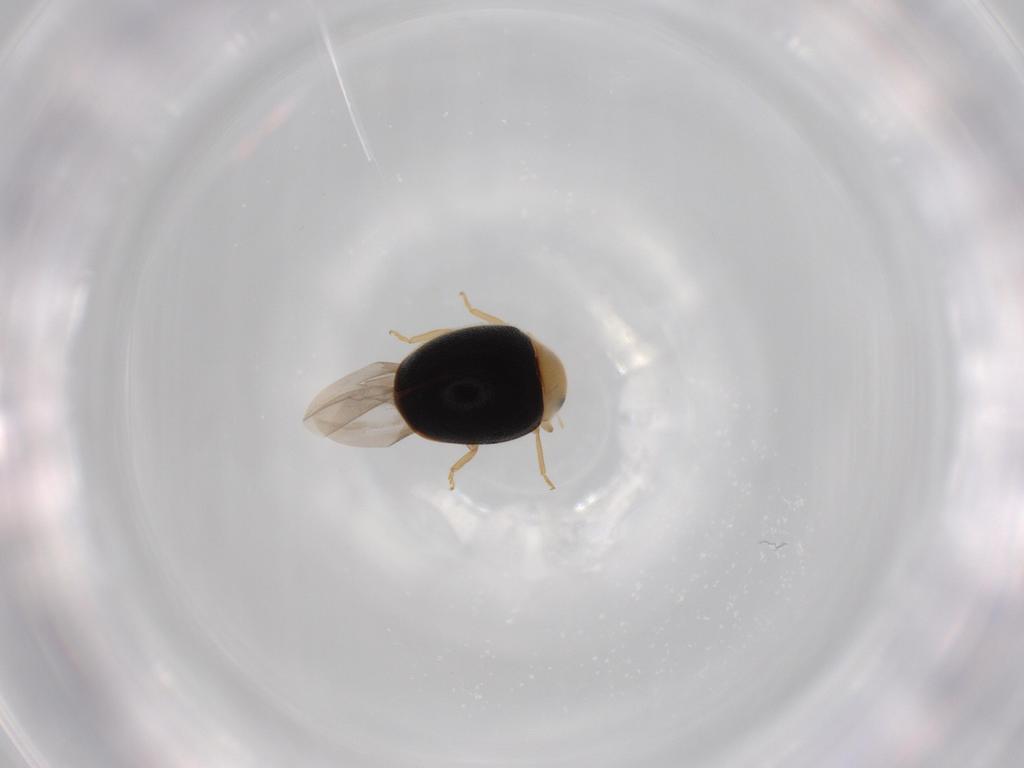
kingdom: Animalia
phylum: Arthropoda
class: Insecta
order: Coleoptera
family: Coccinellidae
